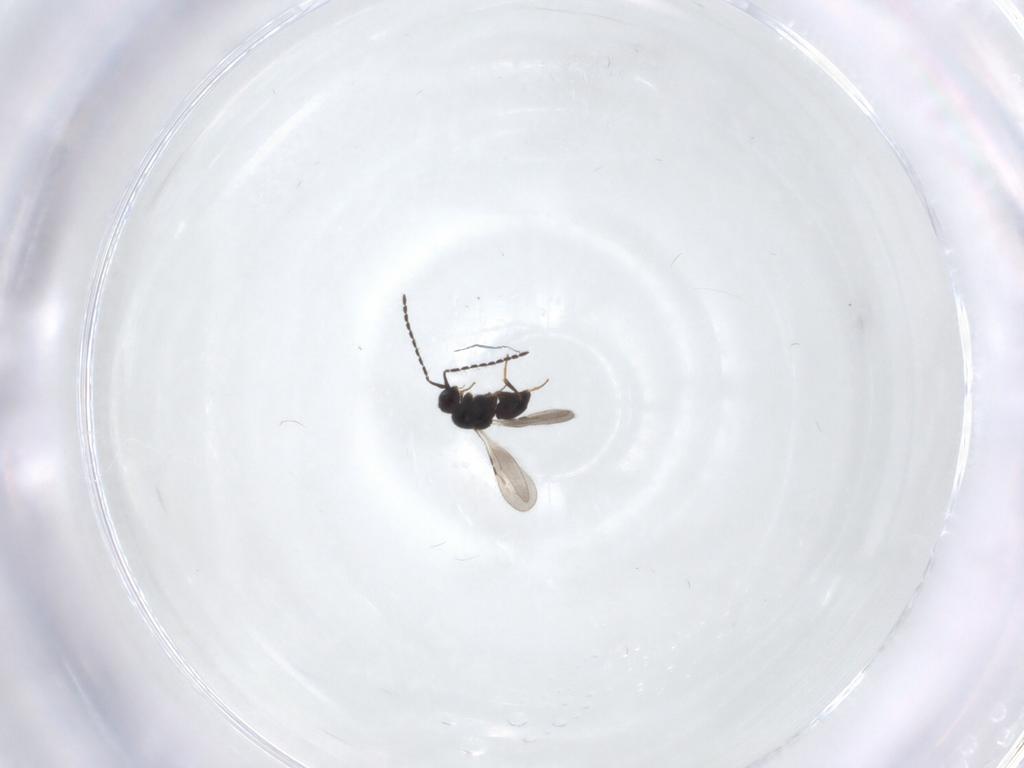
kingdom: Animalia
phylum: Arthropoda
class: Insecta
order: Hymenoptera
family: Ceraphronidae
